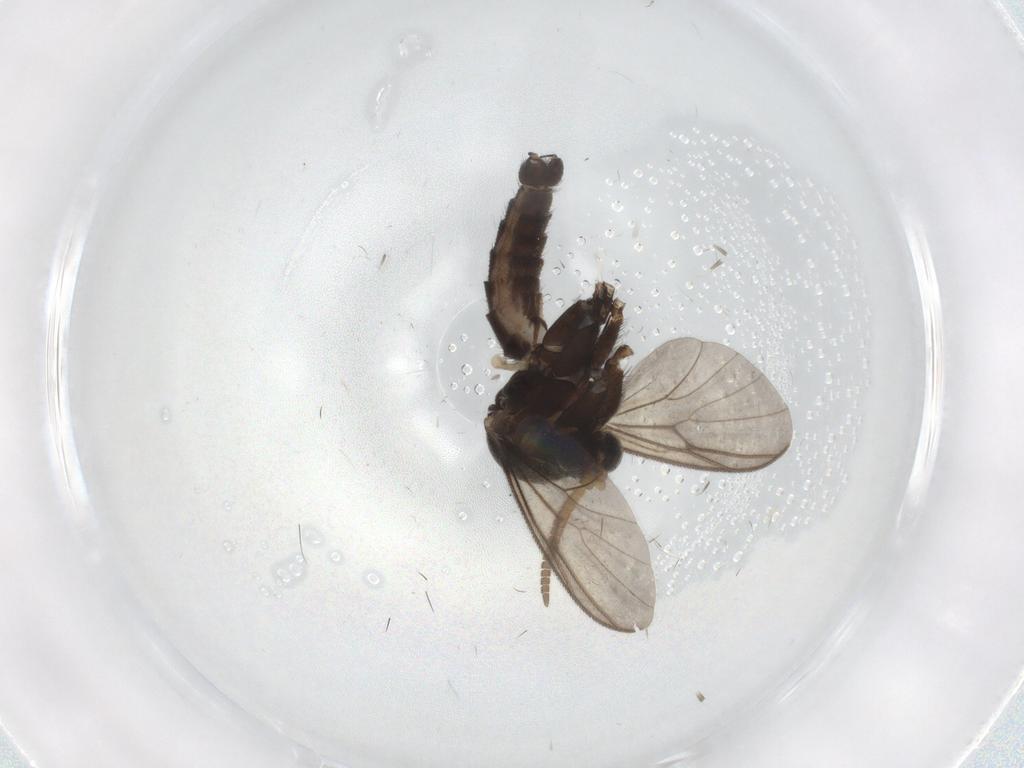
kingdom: Animalia
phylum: Arthropoda
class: Insecta
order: Diptera
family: Chironomidae
